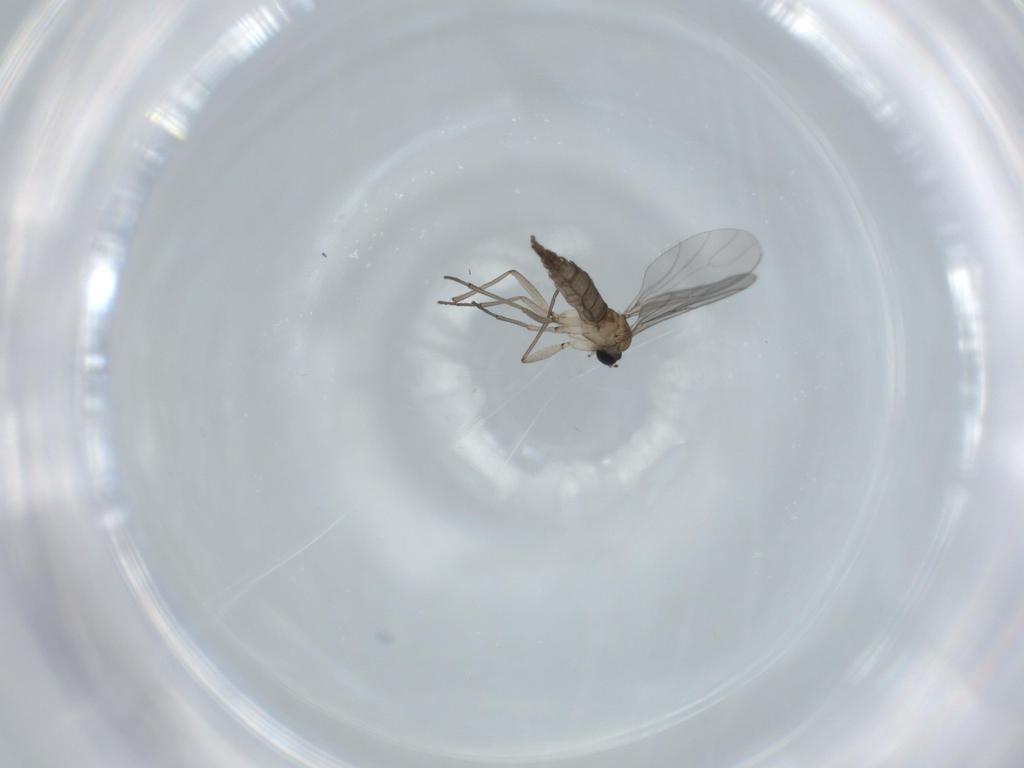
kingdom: Animalia
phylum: Arthropoda
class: Insecta
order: Diptera
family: Sciaridae
